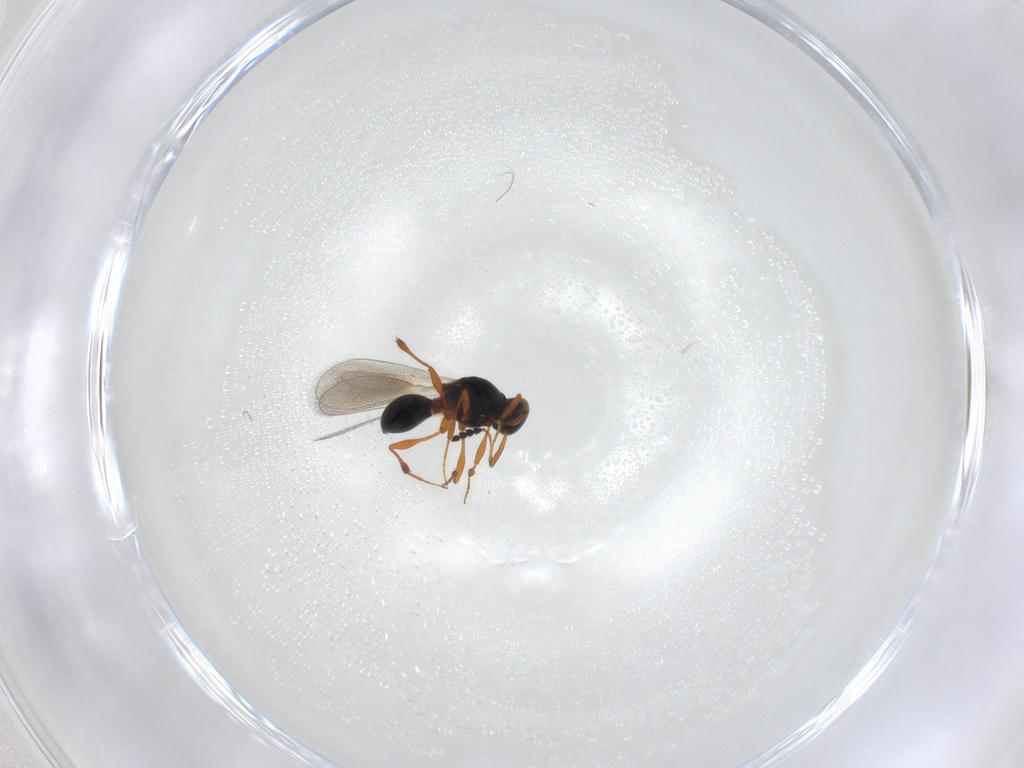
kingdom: Animalia
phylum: Arthropoda
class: Insecta
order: Hymenoptera
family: Platygastridae
